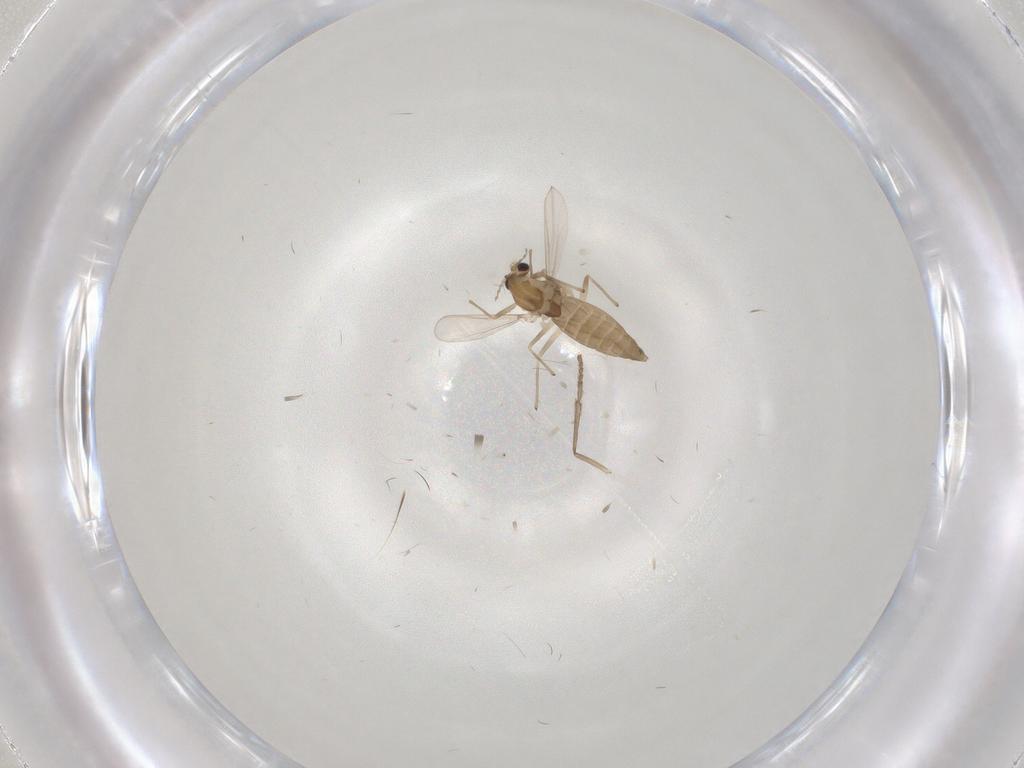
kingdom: Animalia
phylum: Arthropoda
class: Insecta
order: Diptera
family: Chironomidae
